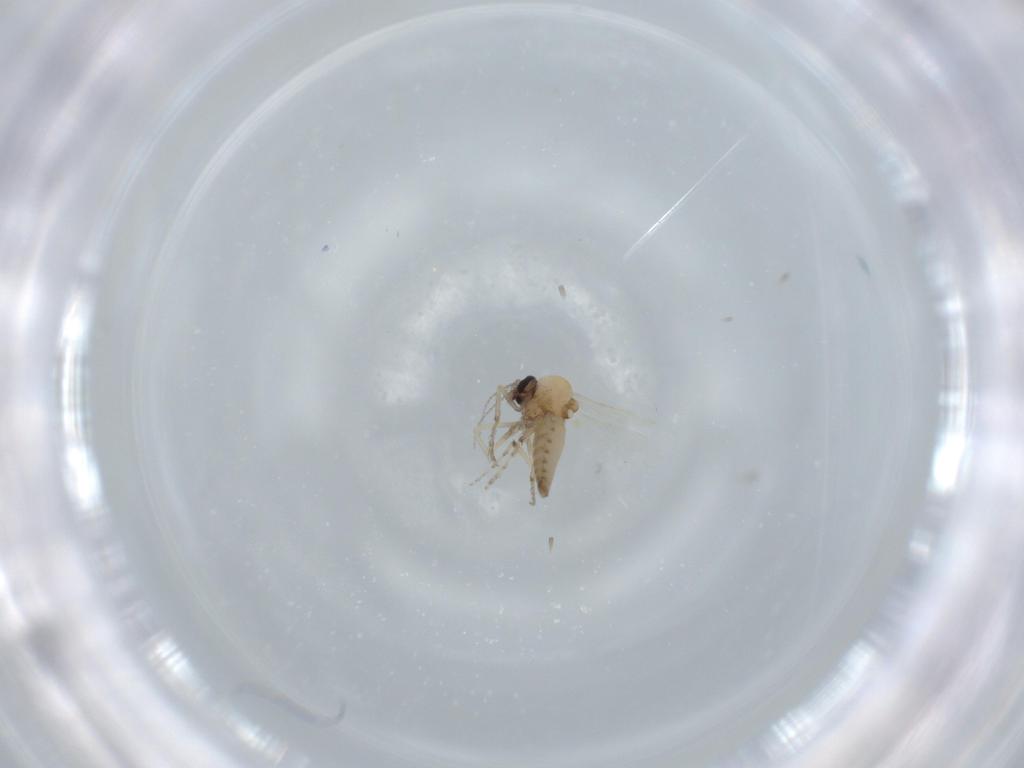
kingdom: Animalia
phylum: Arthropoda
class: Insecta
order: Diptera
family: Ceratopogonidae
